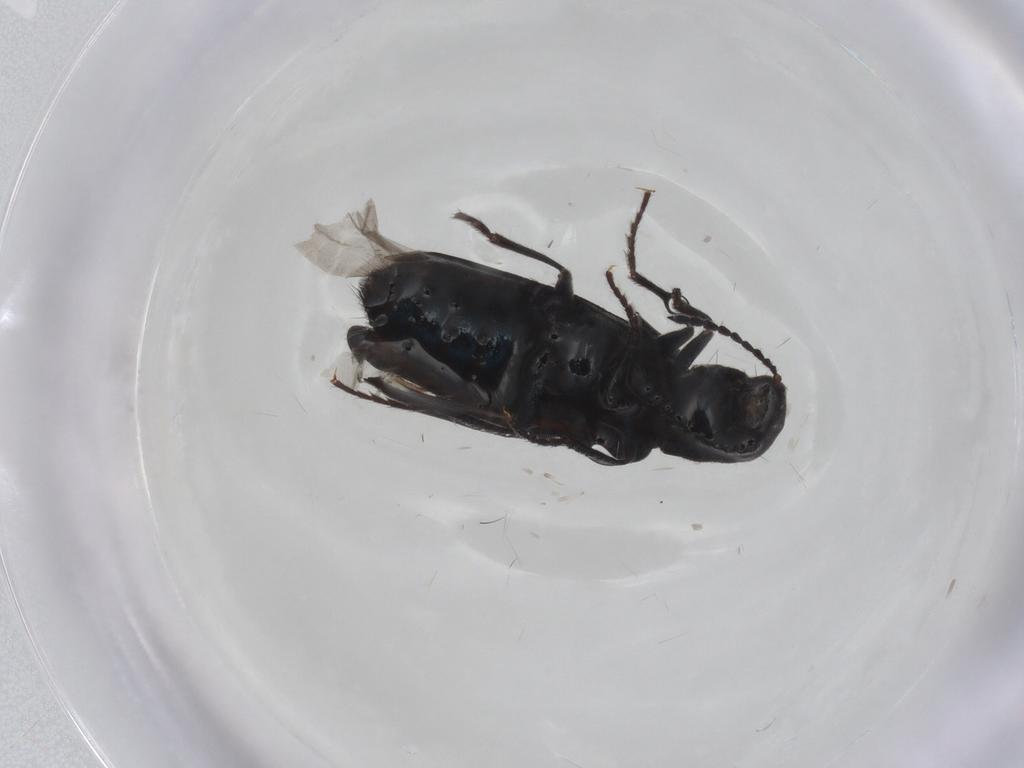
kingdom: Animalia
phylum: Arthropoda
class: Insecta
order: Coleoptera
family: Melyridae
